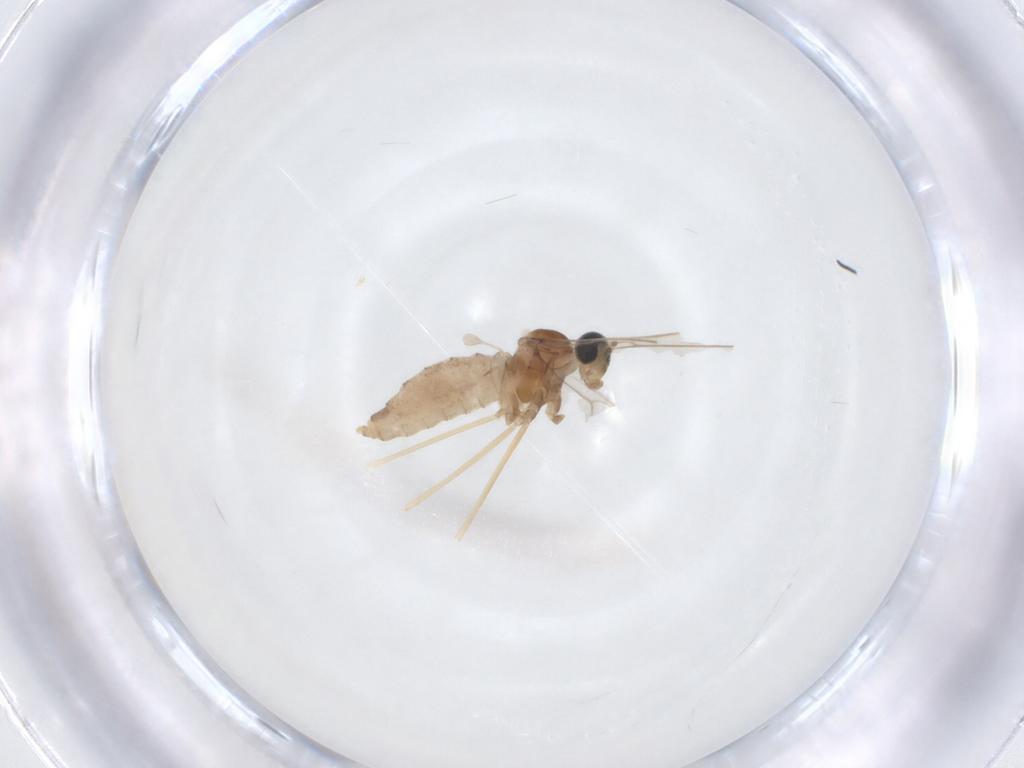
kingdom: Animalia
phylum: Arthropoda
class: Insecta
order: Diptera
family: Cecidomyiidae
